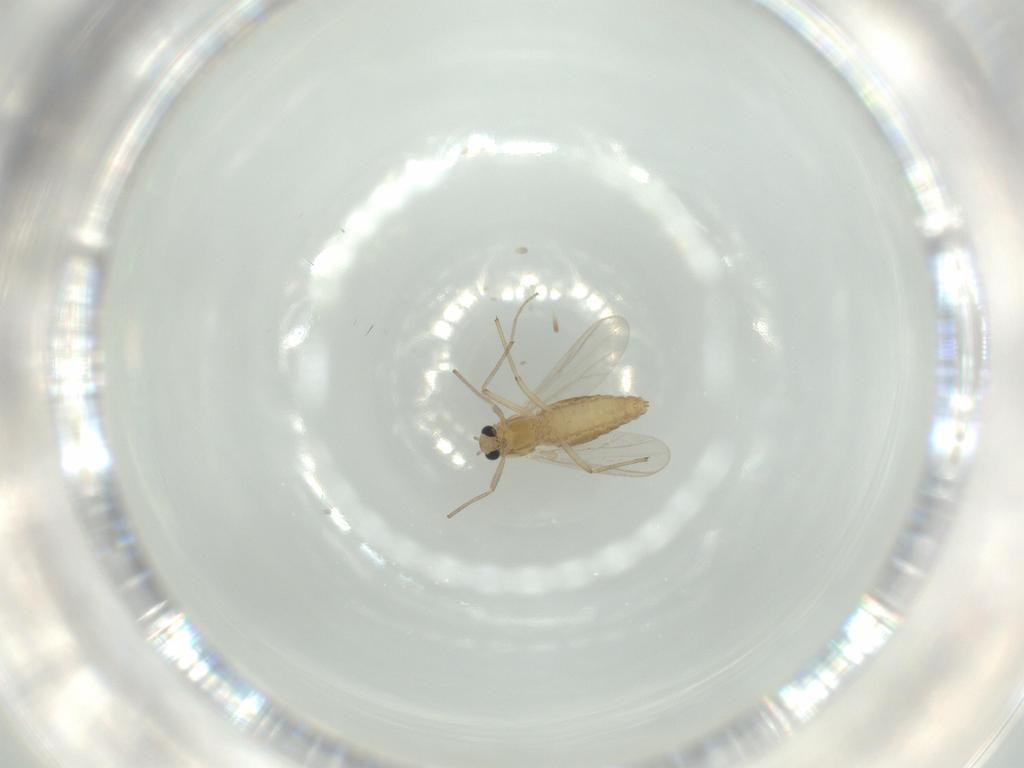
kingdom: Animalia
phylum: Arthropoda
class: Insecta
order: Diptera
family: Chironomidae
